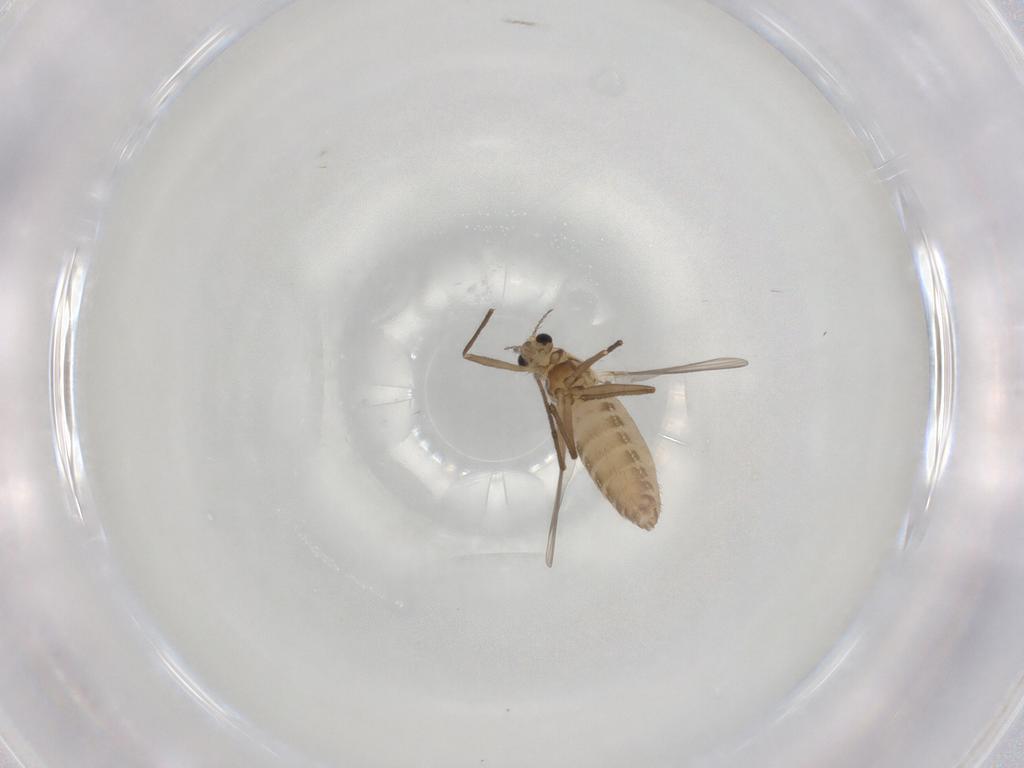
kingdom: Animalia
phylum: Arthropoda
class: Insecta
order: Diptera
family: Chironomidae
